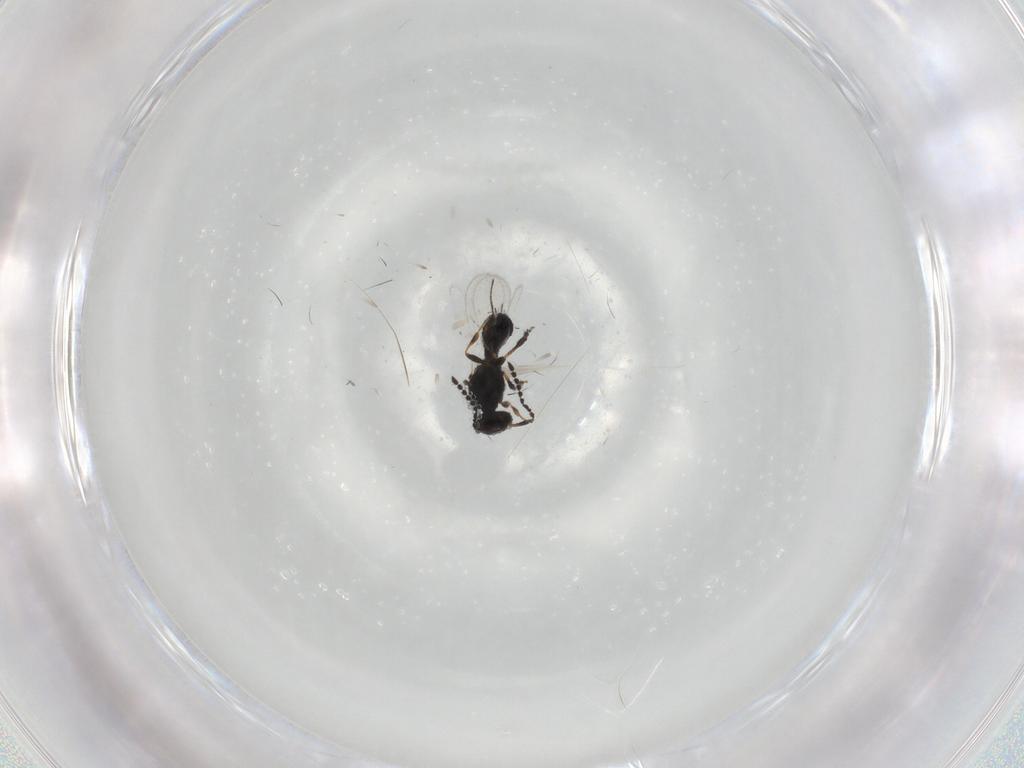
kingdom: Animalia
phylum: Arthropoda
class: Insecta
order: Hymenoptera
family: Platygastridae
